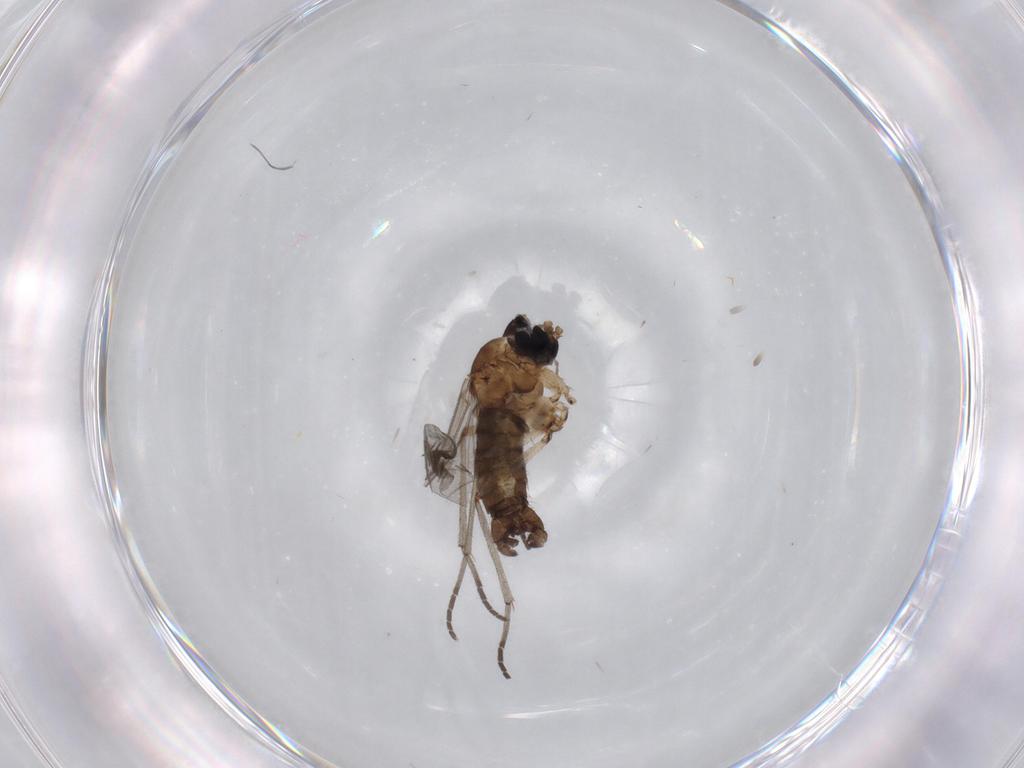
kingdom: Animalia
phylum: Arthropoda
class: Insecta
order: Diptera
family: Sciaridae
